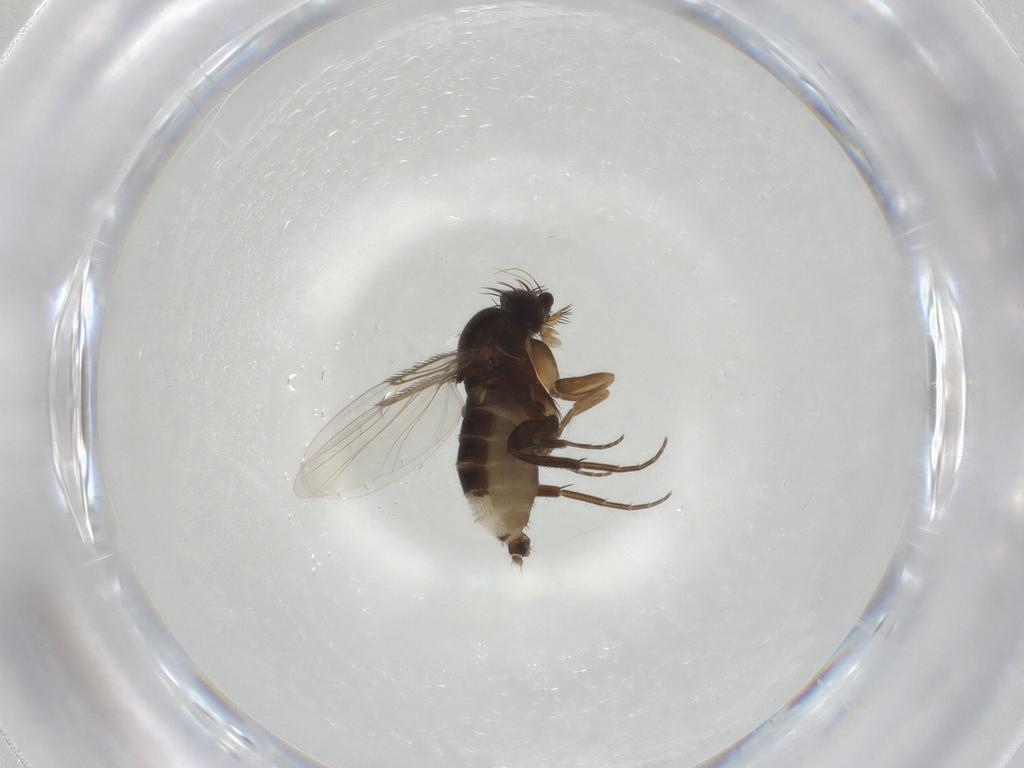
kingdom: Animalia
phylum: Arthropoda
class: Insecta
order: Diptera
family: Phoridae
